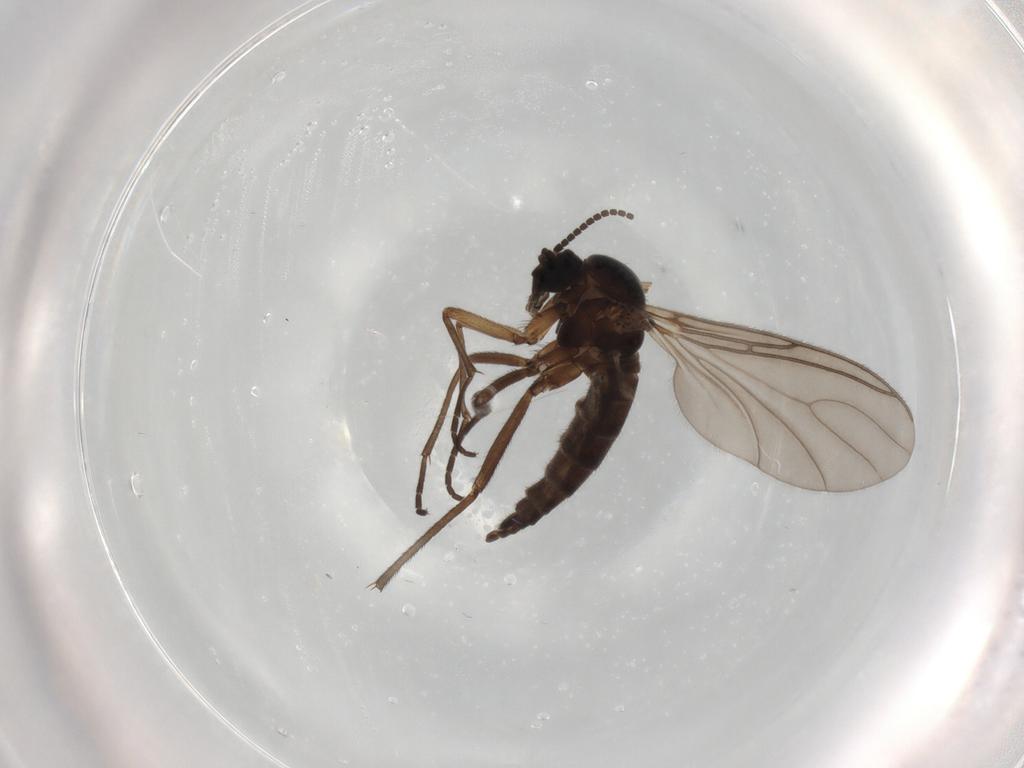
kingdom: Animalia
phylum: Arthropoda
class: Insecta
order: Diptera
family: Sciaridae
